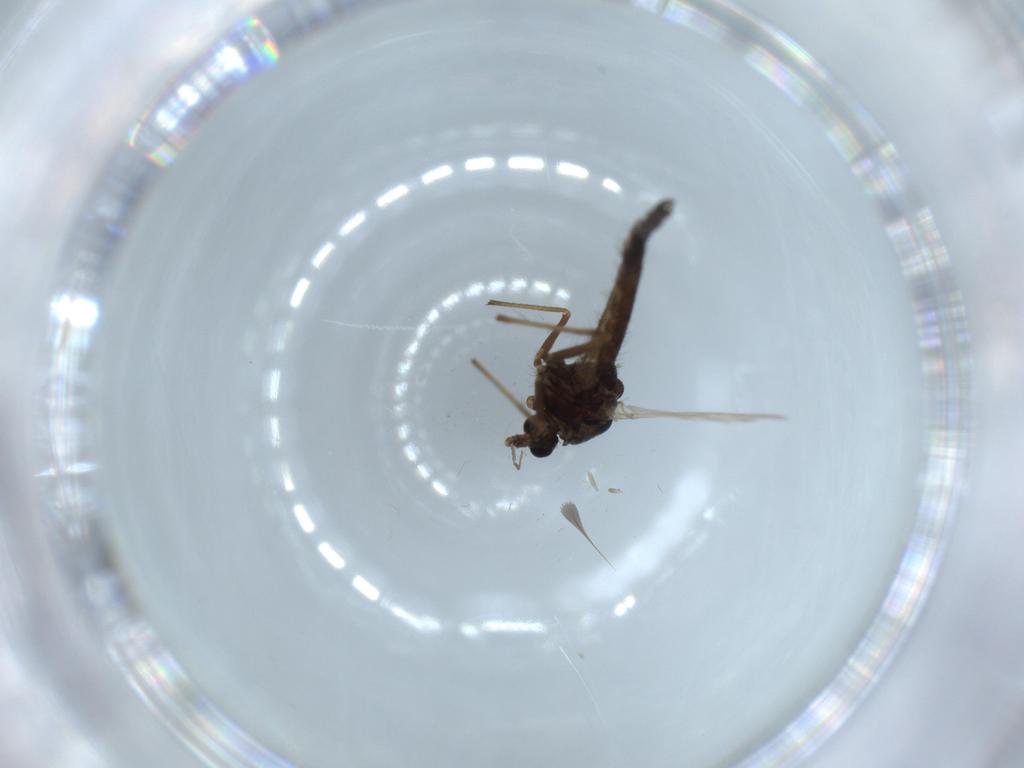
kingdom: Animalia
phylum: Arthropoda
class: Insecta
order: Diptera
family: Chironomidae
